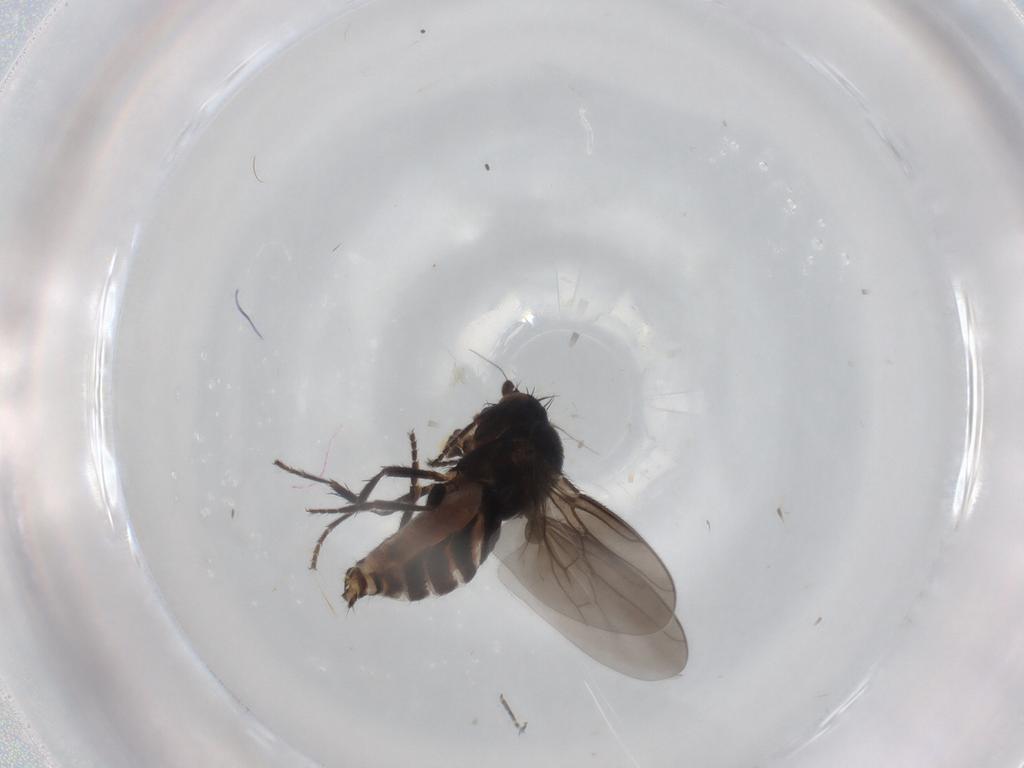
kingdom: Animalia
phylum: Arthropoda
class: Insecta
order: Diptera
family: Sphaeroceridae
